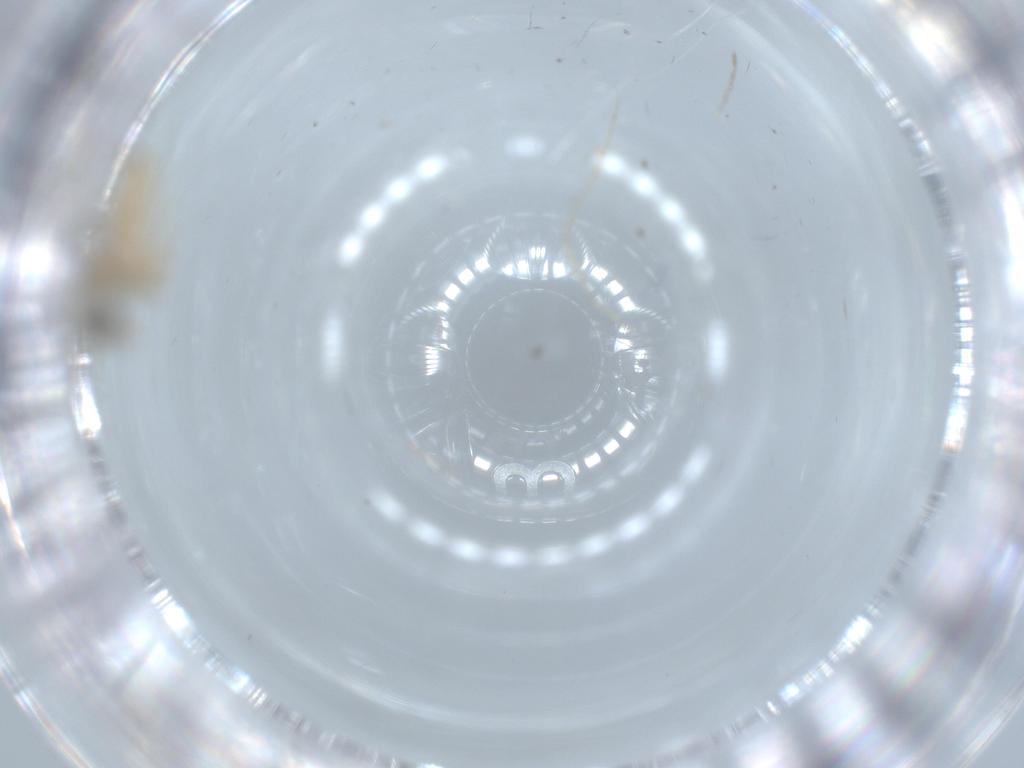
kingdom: Animalia
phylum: Arthropoda
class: Insecta
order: Diptera
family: Cecidomyiidae
